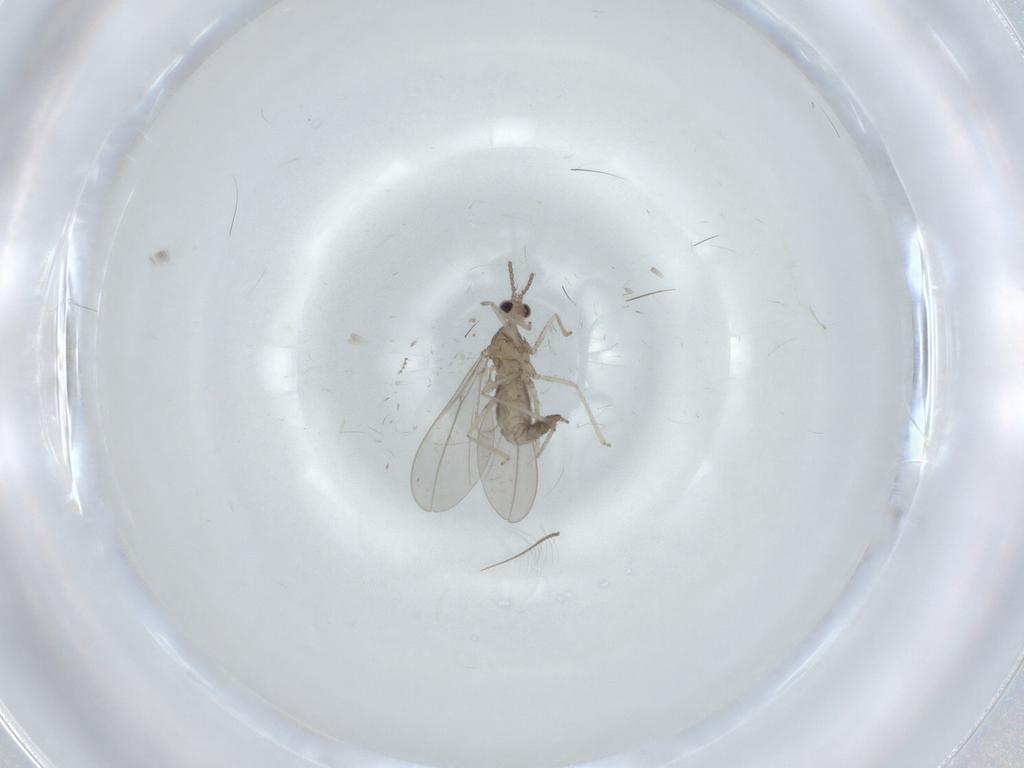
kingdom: Animalia
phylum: Arthropoda
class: Insecta
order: Diptera
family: Cecidomyiidae
